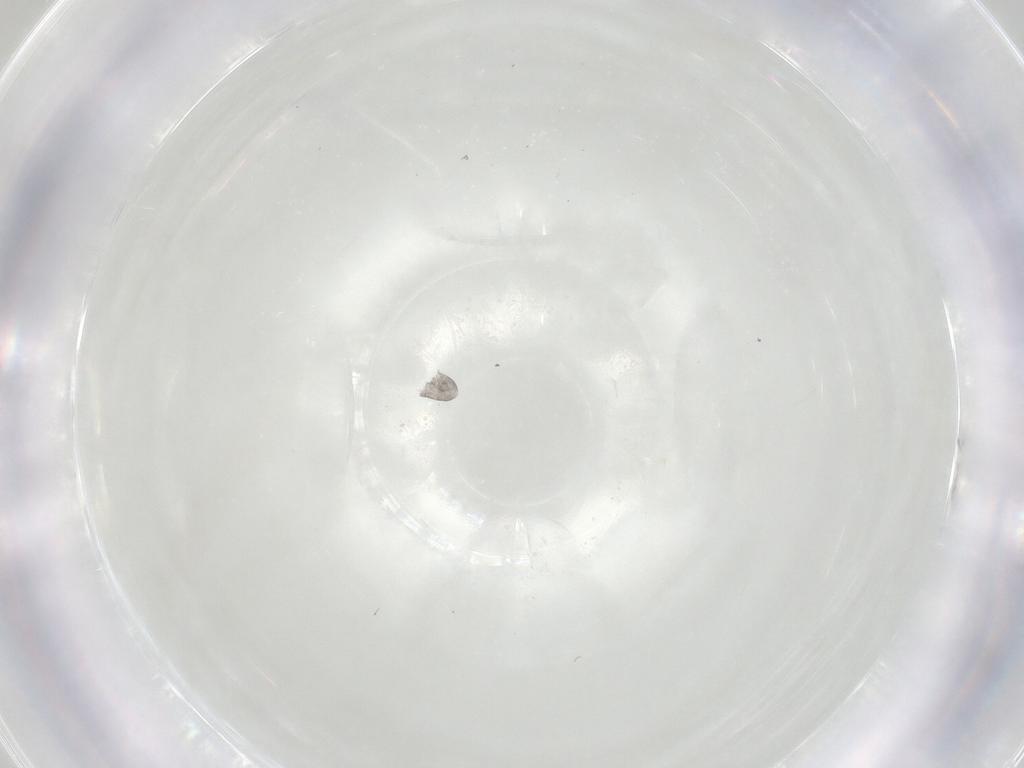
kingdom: Animalia
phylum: Arthropoda
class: Collembola
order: Entomobryomorpha
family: Isotomidae
